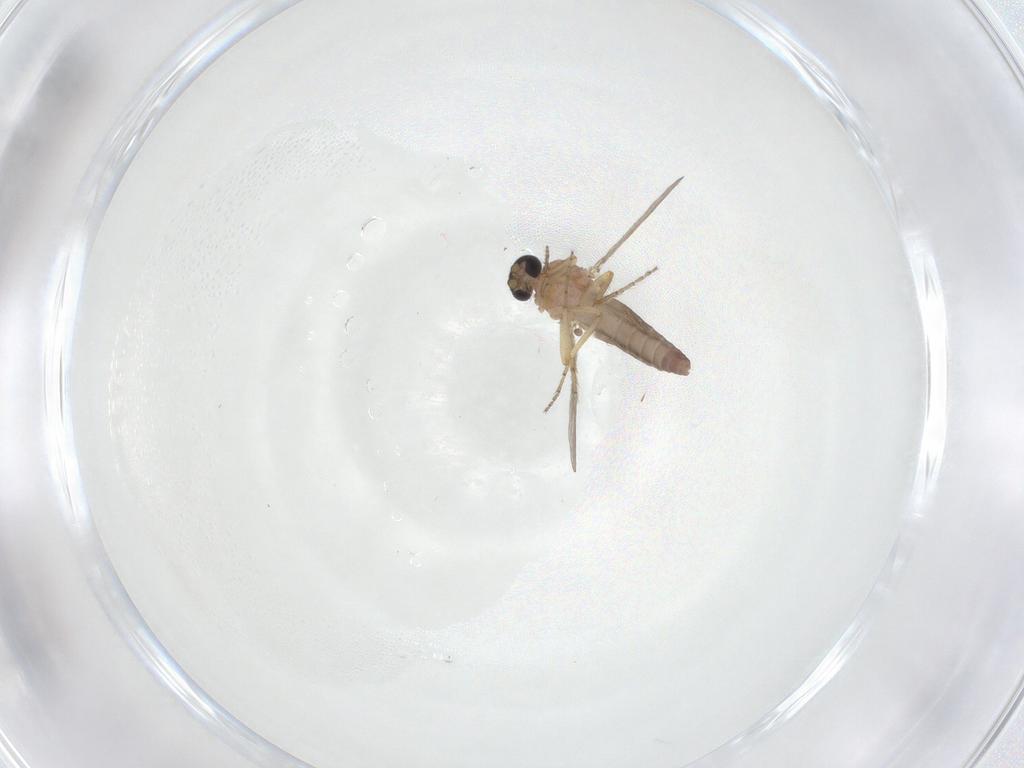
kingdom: Animalia
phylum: Arthropoda
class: Insecta
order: Diptera
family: Ceratopogonidae
